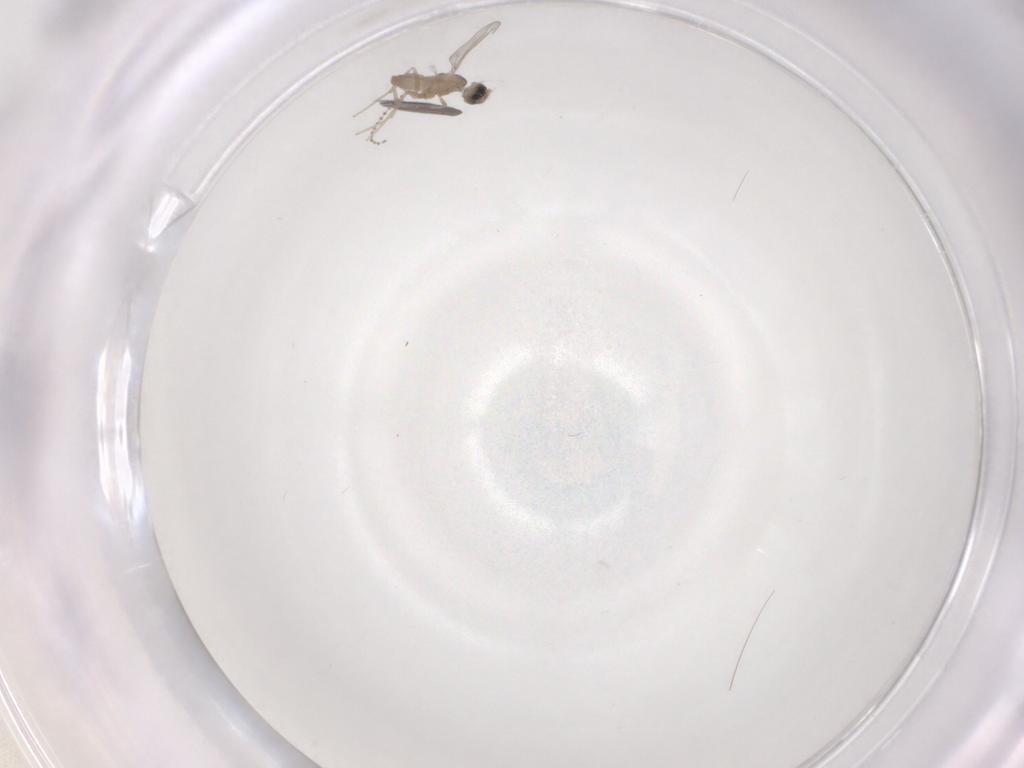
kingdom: Animalia
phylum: Arthropoda
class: Insecta
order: Diptera
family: Cecidomyiidae
